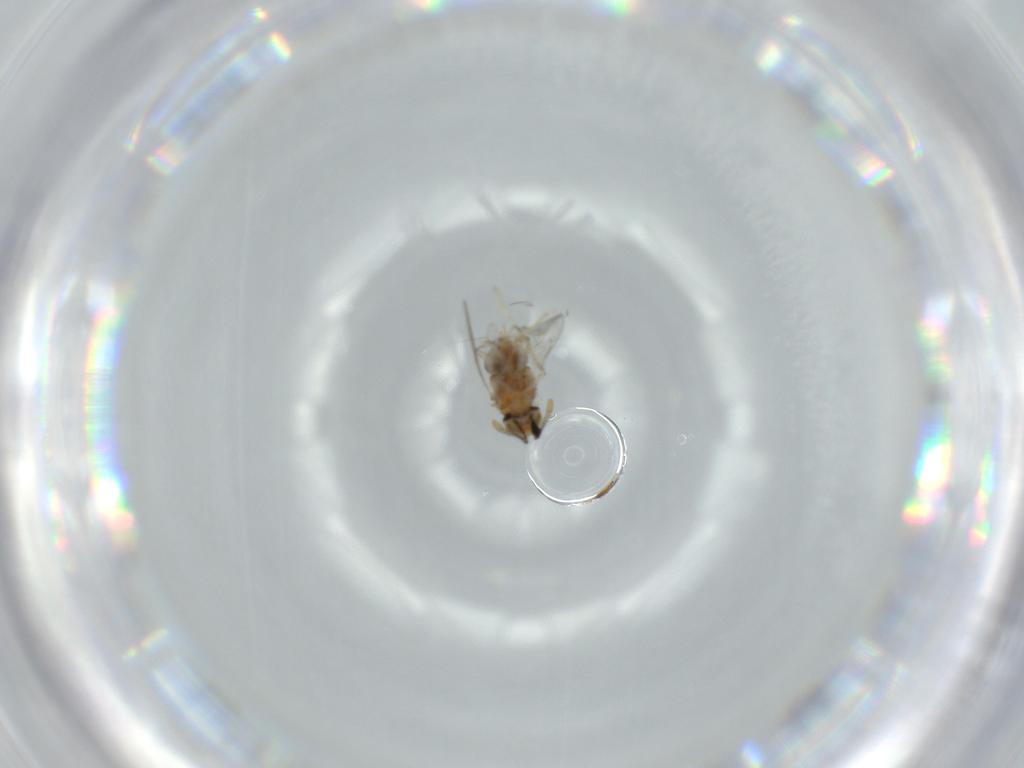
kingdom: Animalia
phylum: Arthropoda
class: Insecta
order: Hymenoptera
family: Encyrtidae
